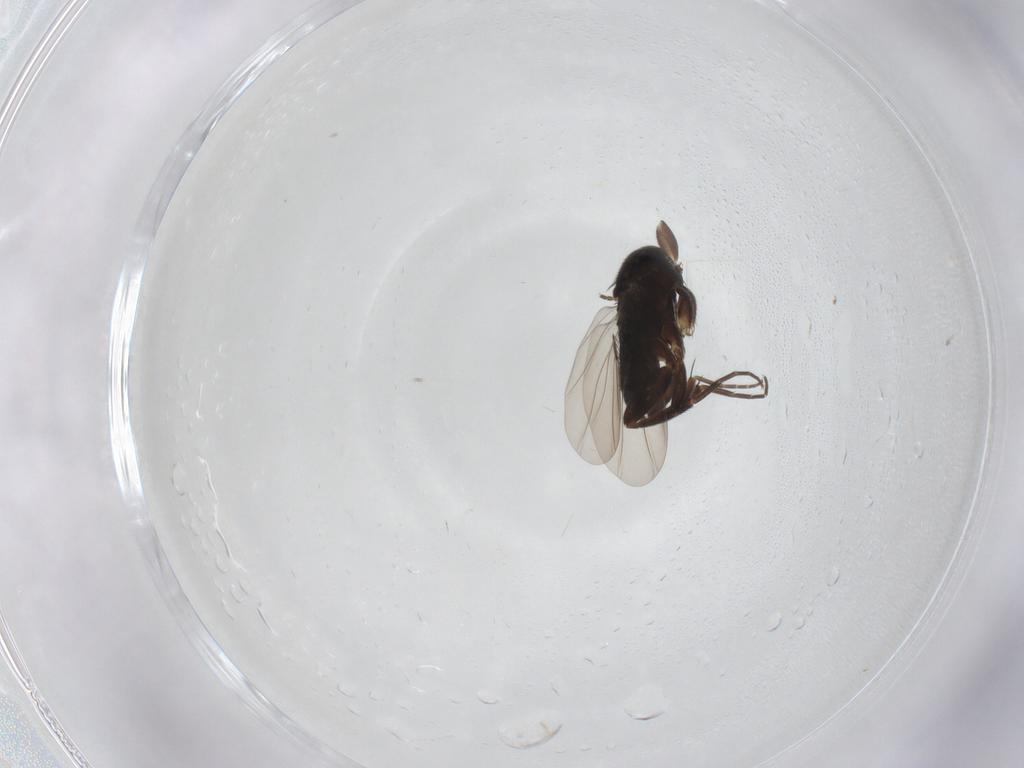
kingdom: Animalia
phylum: Arthropoda
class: Insecta
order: Diptera
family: Phoridae
